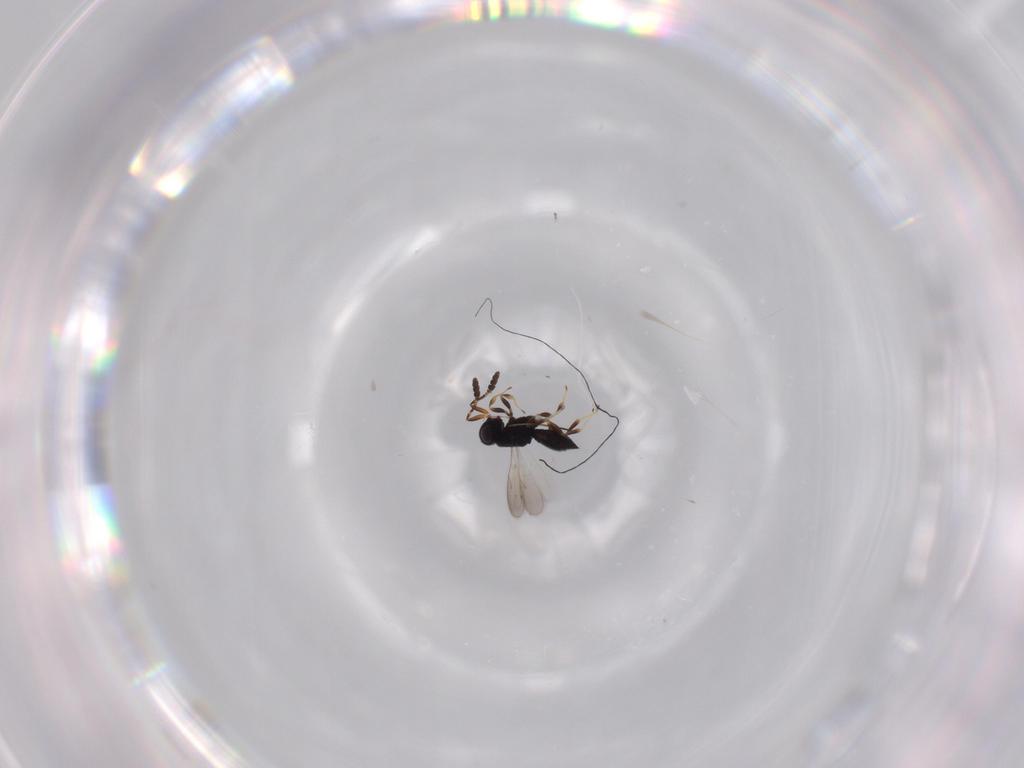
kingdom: Animalia
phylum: Arthropoda
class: Insecta
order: Hymenoptera
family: Scelionidae
